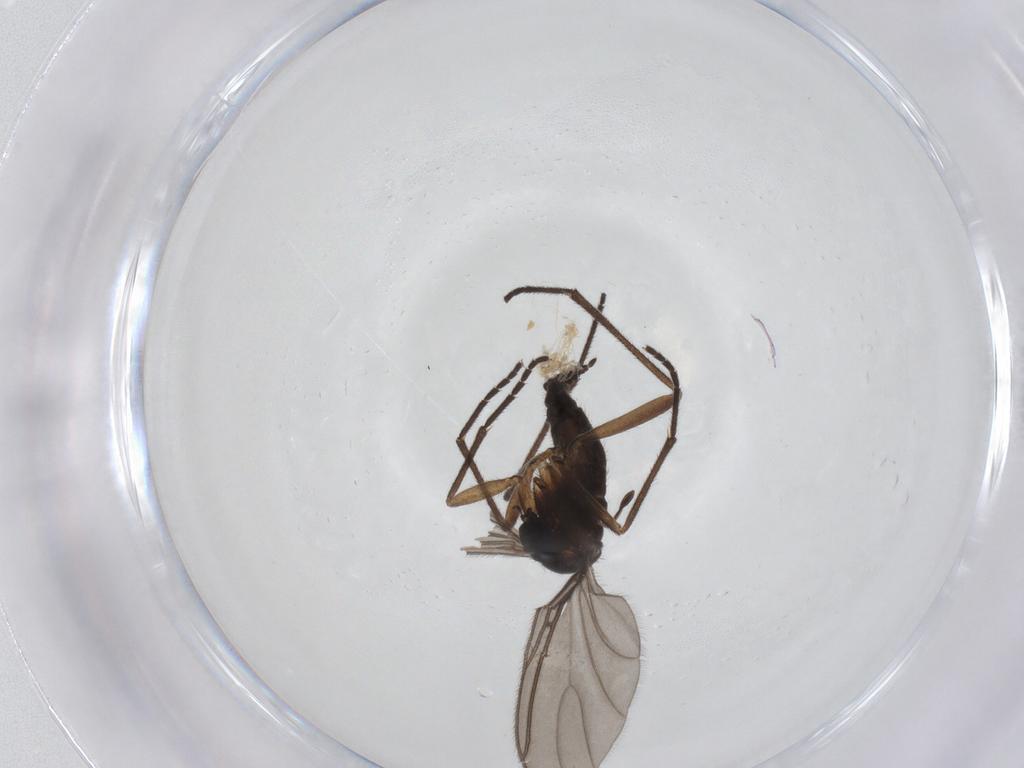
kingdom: Animalia
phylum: Arthropoda
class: Insecta
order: Diptera
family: Sciaridae
